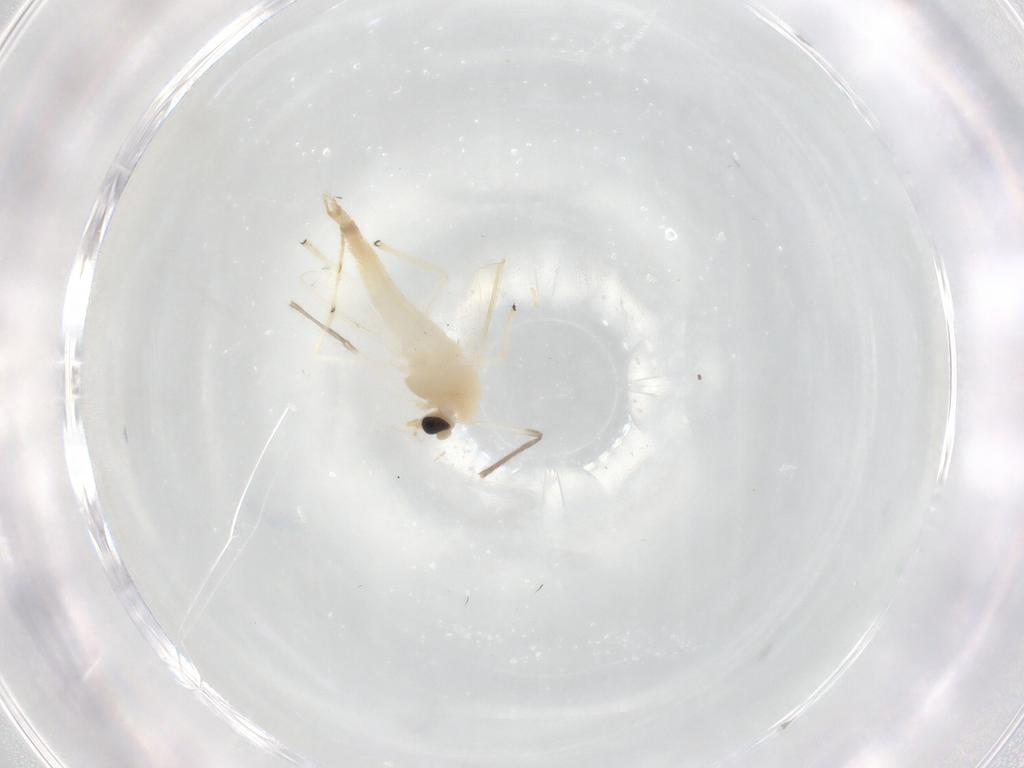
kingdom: Animalia
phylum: Arthropoda
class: Insecta
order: Diptera
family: Chironomidae
